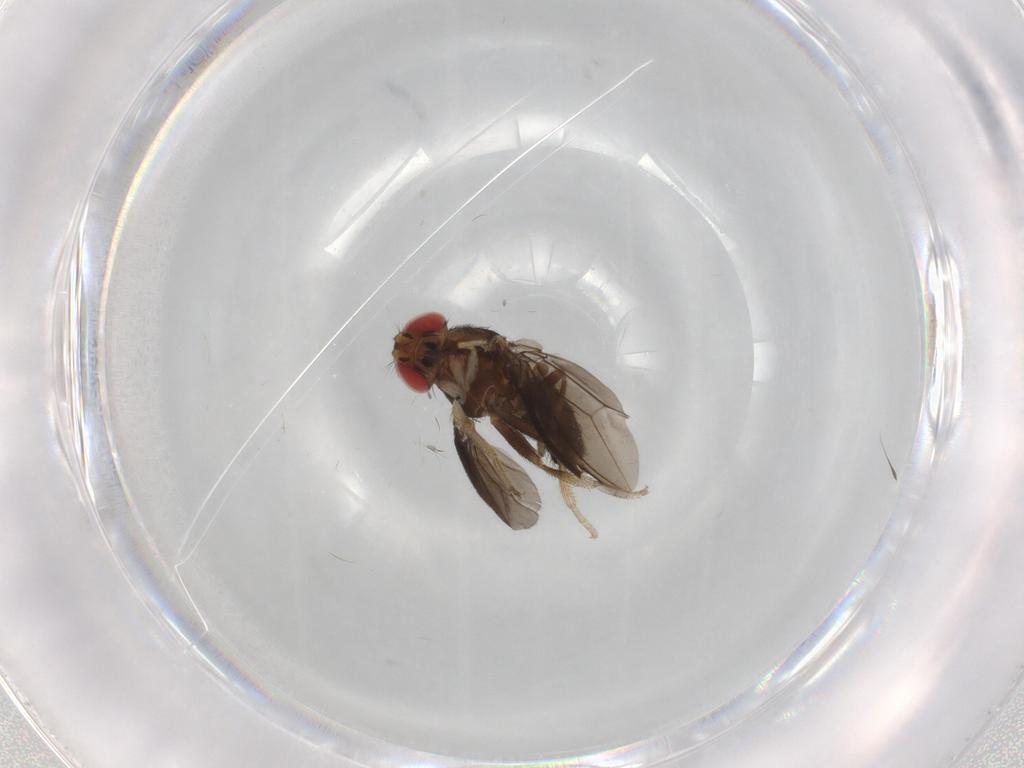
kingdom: Animalia
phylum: Arthropoda
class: Insecta
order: Diptera
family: Drosophilidae
